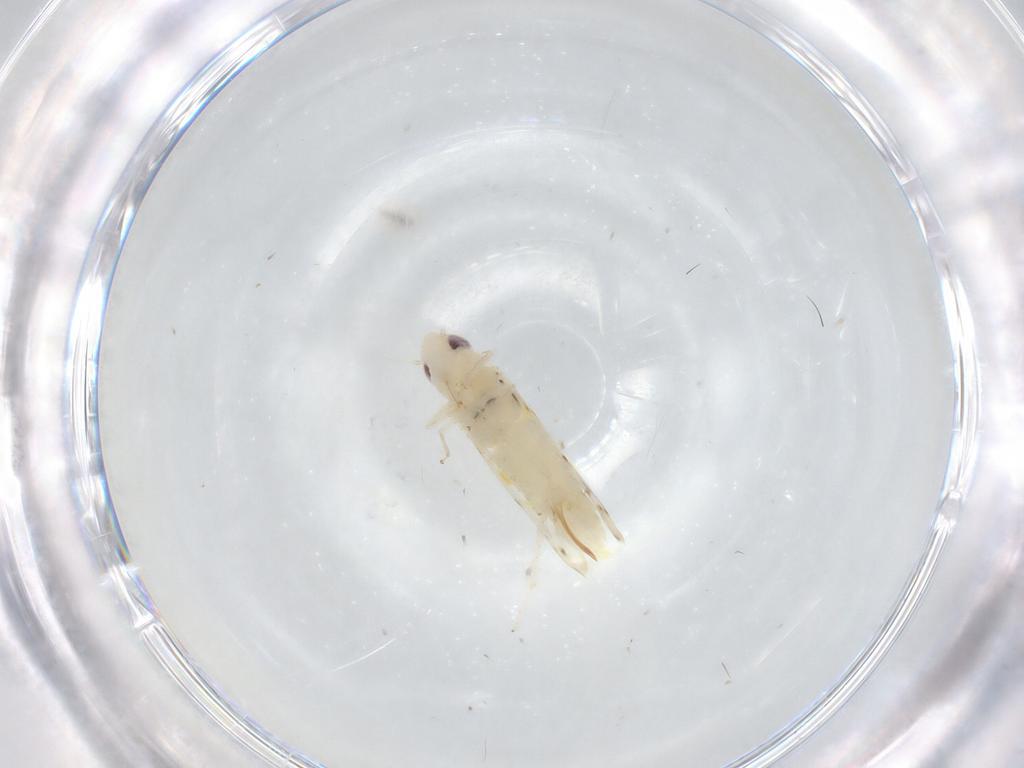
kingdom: Animalia
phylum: Arthropoda
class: Insecta
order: Hemiptera
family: Cicadellidae
